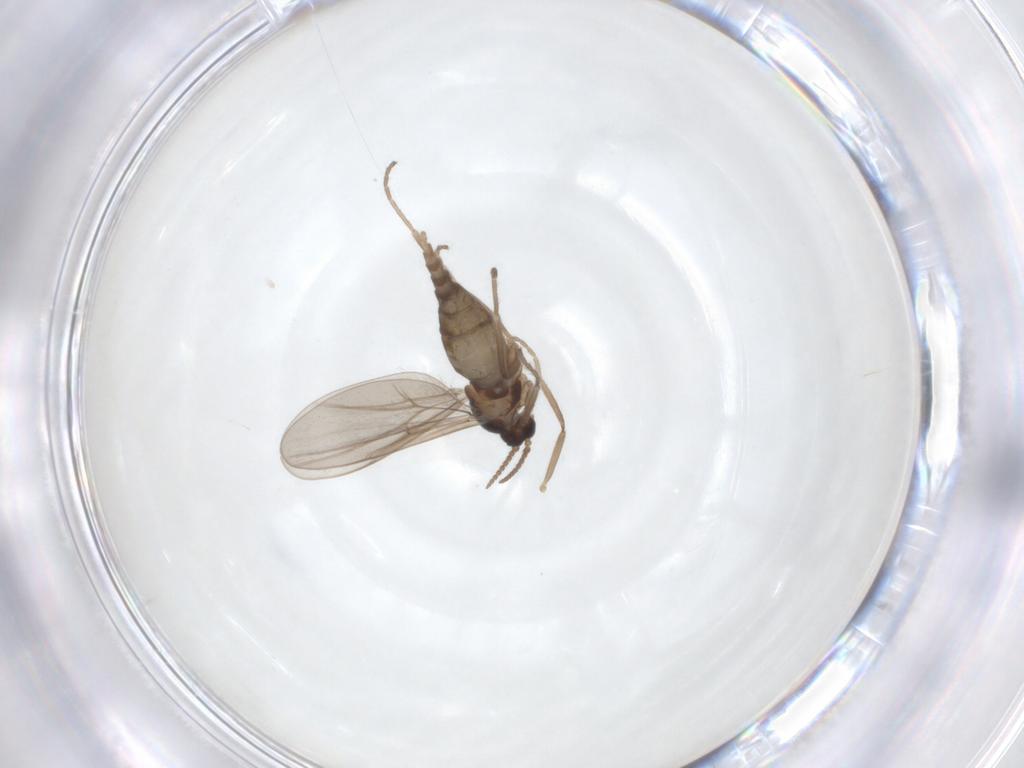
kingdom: Animalia
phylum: Arthropoda
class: Insecta
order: Diptera
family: Cecidomyiidae
